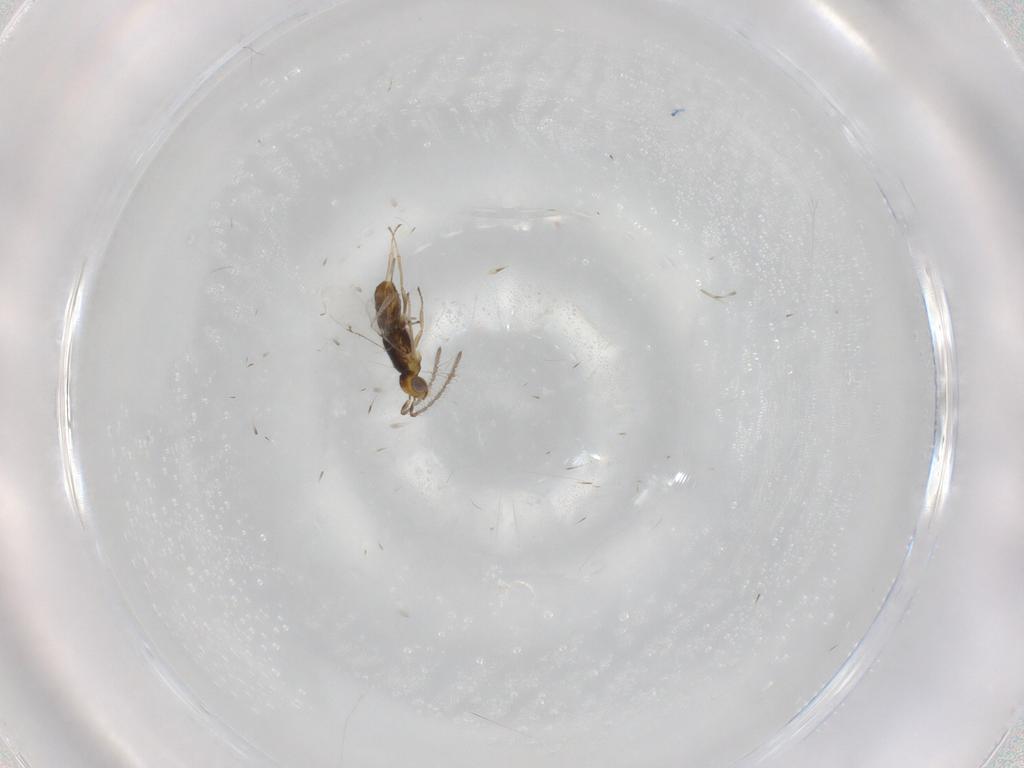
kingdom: Animalia
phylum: Arthropoda
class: Insecta
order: Hymenoptera
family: Encyrtidae
